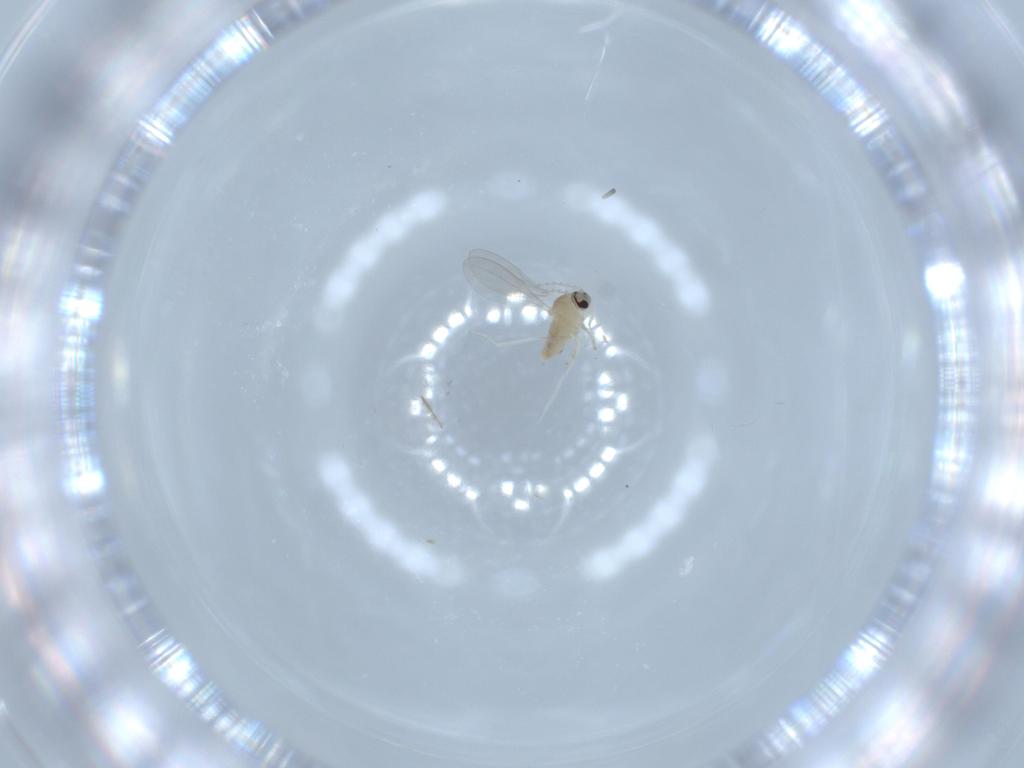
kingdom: Animalia
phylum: Arthropoda
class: Insecta
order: Diptera
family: Cecidomyiidae
